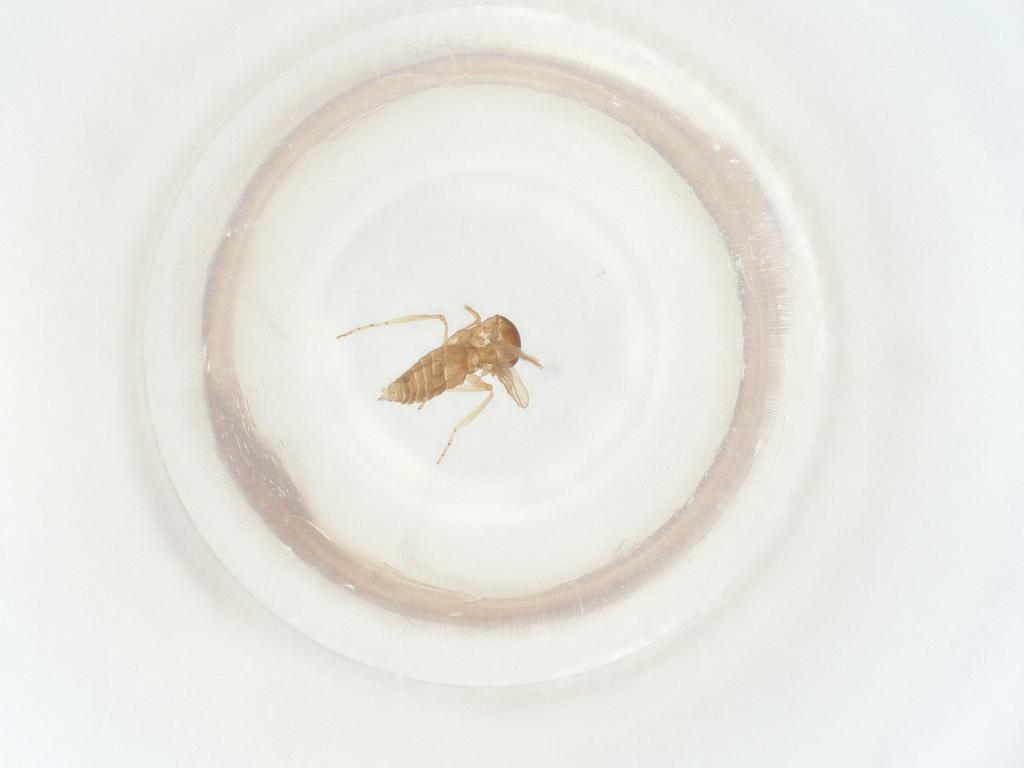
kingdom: Animalia
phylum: Arthropoda
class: Insecta
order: Diptera
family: Ceratopogonidae
